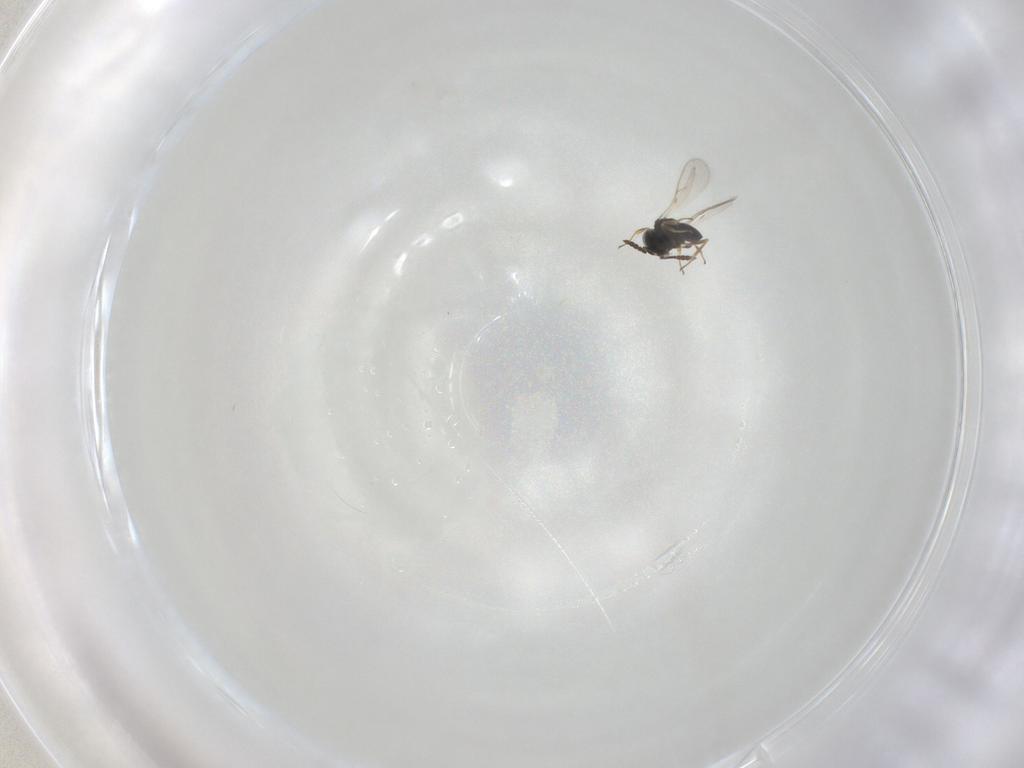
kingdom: Animalia
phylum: Arthropoda
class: Insecta
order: Hymenoptera
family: Scelionidae
